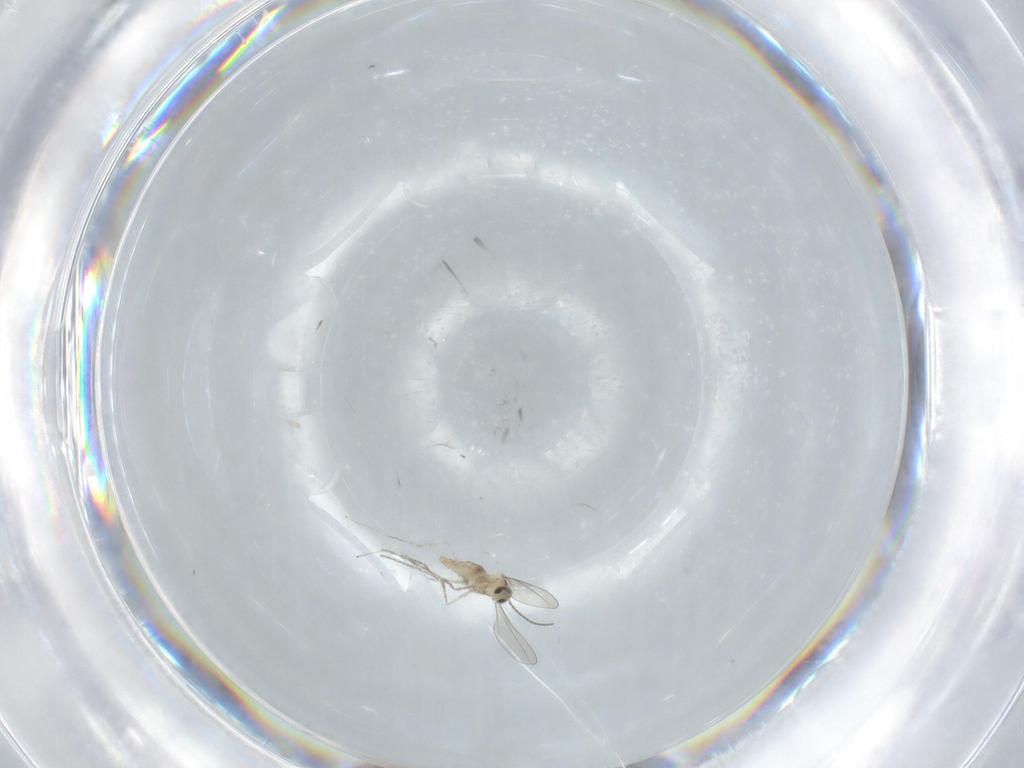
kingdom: Animalia
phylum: Arthropoda
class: Insecta
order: Diptera
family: Cecidomyiidae
